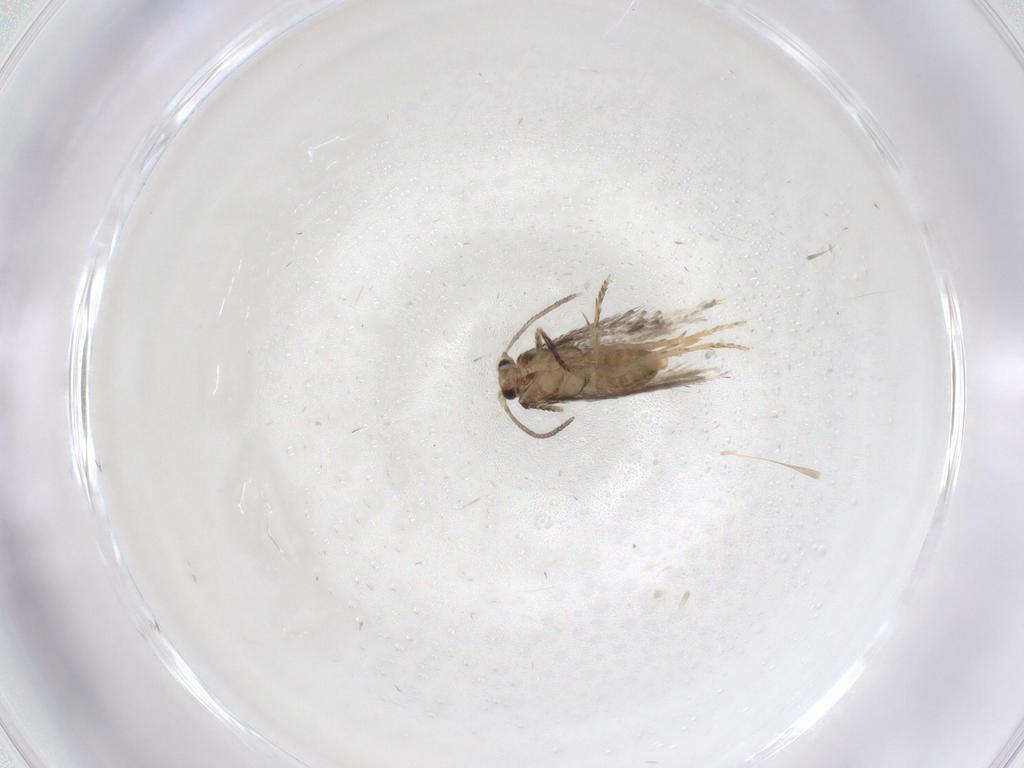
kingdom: Animalia
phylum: Arthropoda
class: Insecta
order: Lepidoptera
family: Nepticulidae
